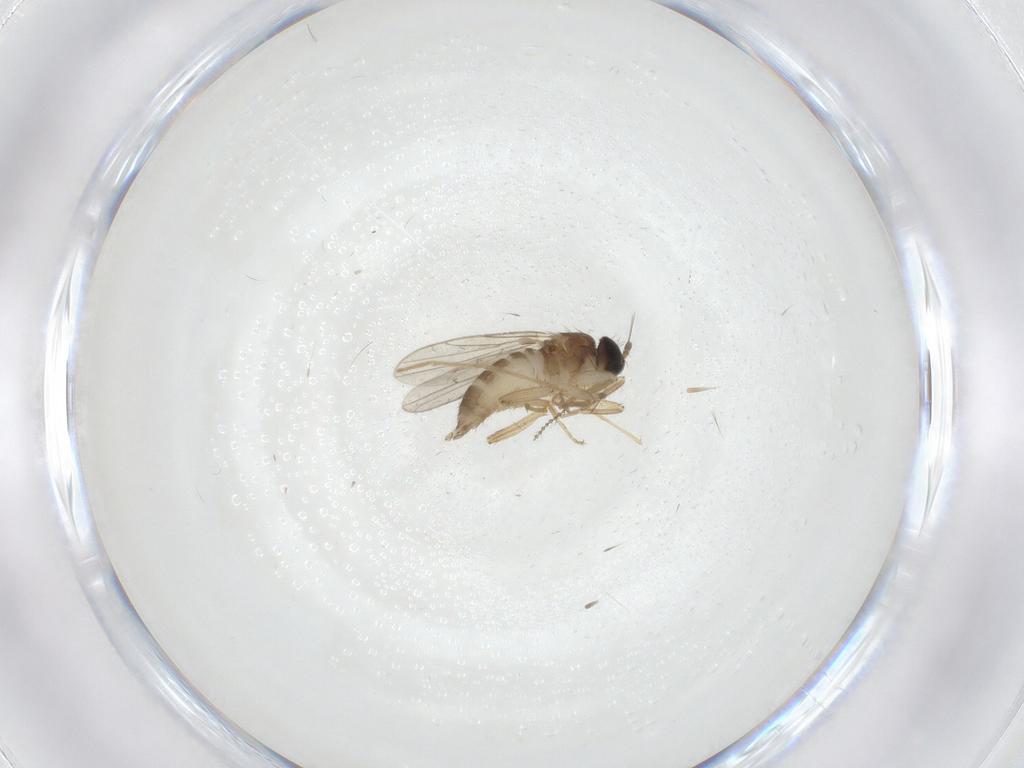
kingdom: Animalia
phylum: Arthropoda
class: Insecta
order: Diptera
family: Hybotidae
